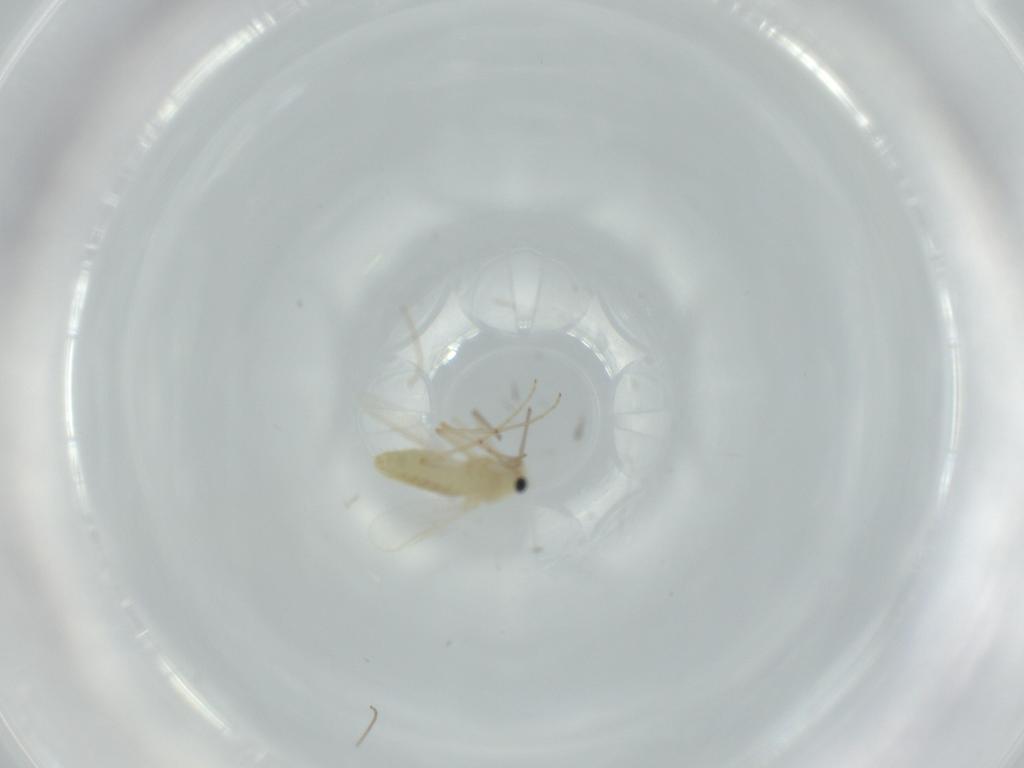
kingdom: Animalia
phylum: Arthropoda
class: Insecta
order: Diptera
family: Chironomidae
